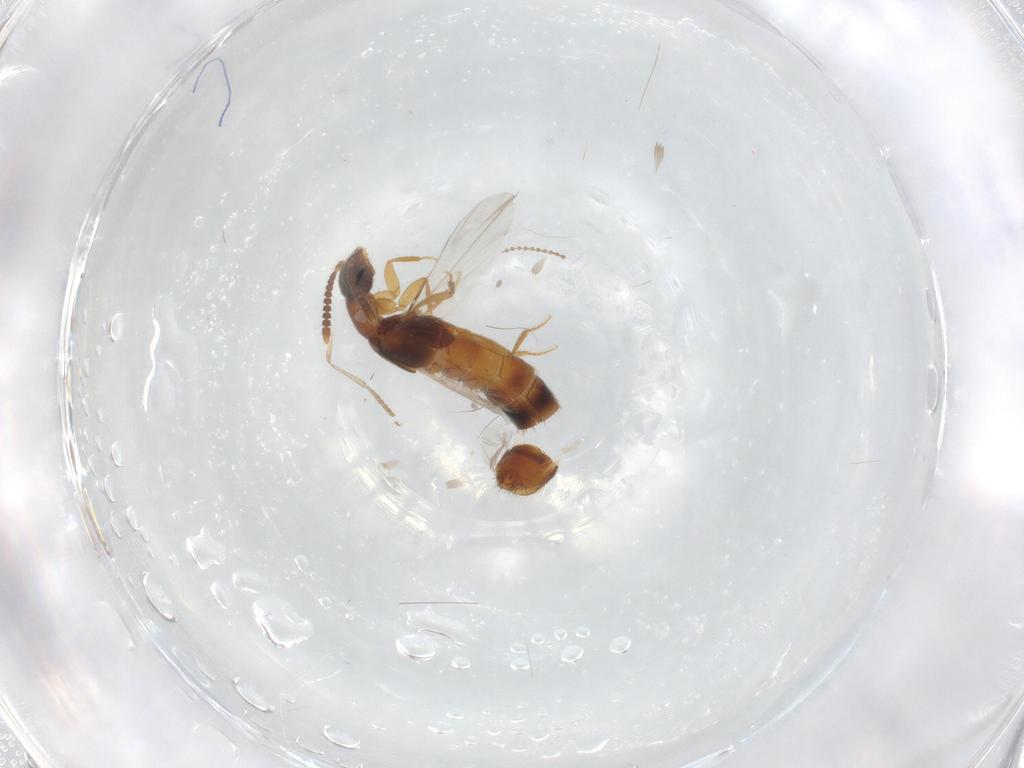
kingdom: Animalia
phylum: Arthropoda
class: Insecta
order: Coleoptera
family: Staphylinidae
